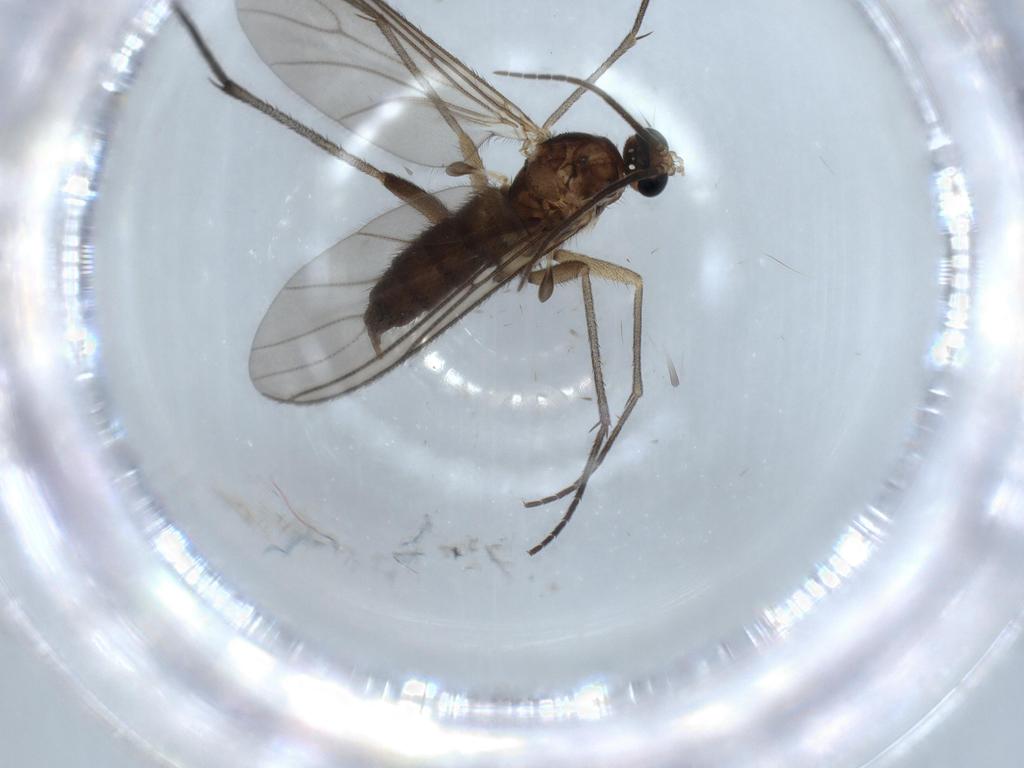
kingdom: Animalia
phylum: Arthropoda
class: Insecta
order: Diptera
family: Sciaridae
